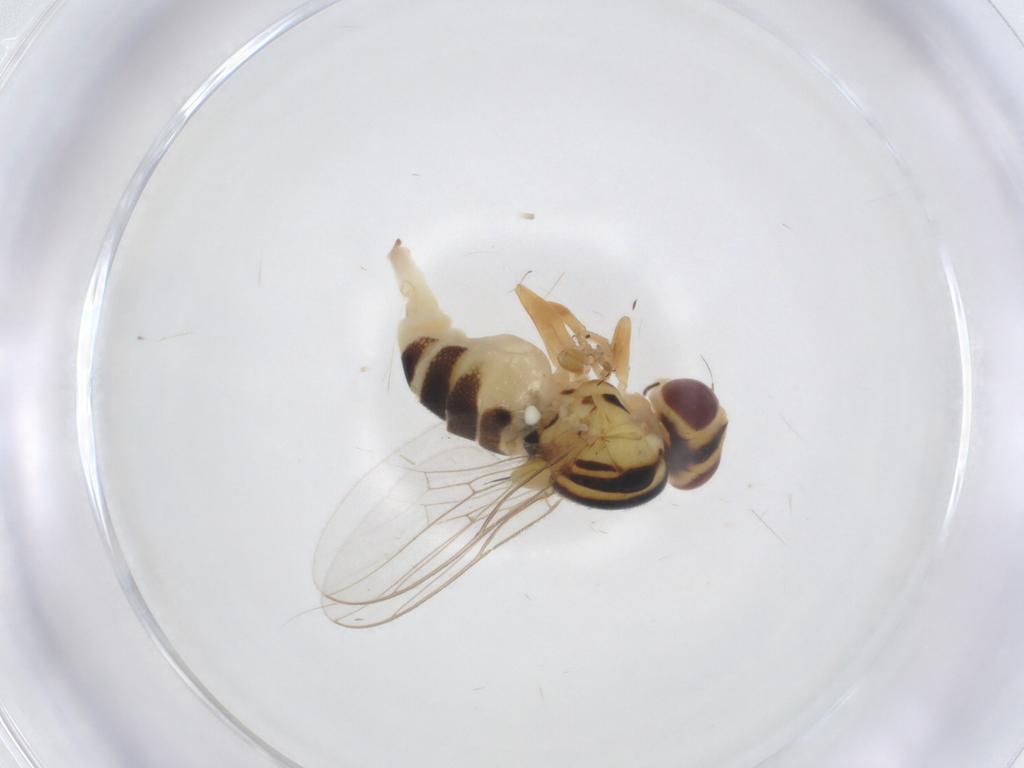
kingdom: Animalia
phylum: Arthropoda
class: Insecta
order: Diptera
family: Chloropidae
